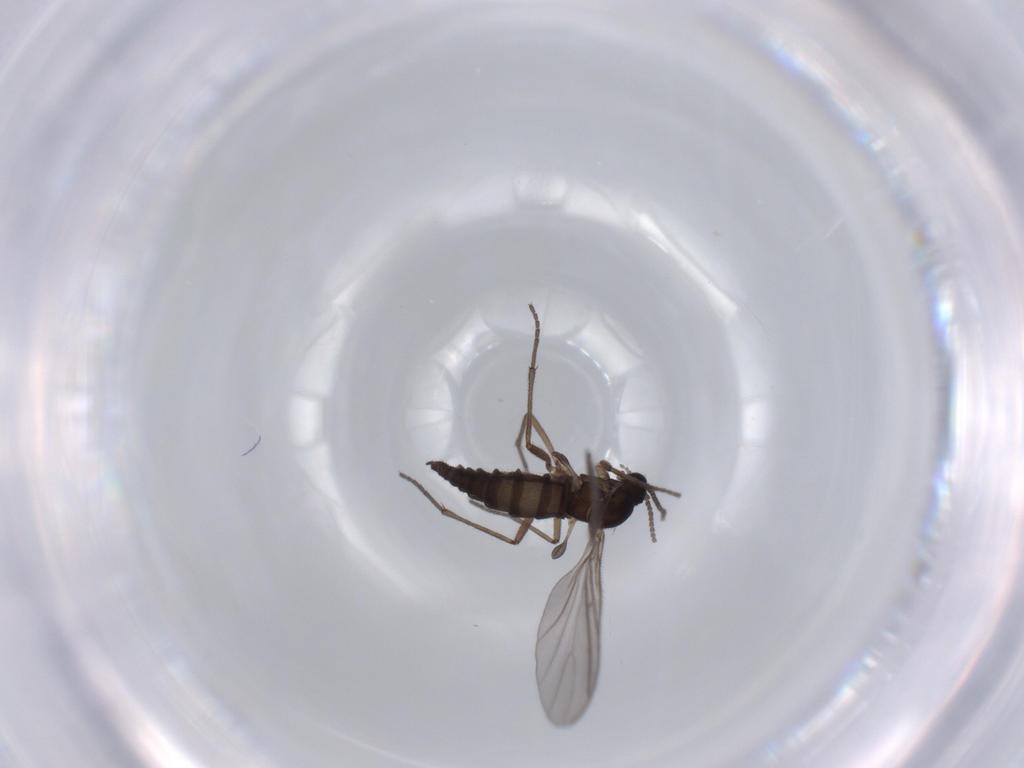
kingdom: Animalia
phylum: Arthropoda
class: Insecta
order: Diptera
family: Sciaridae
